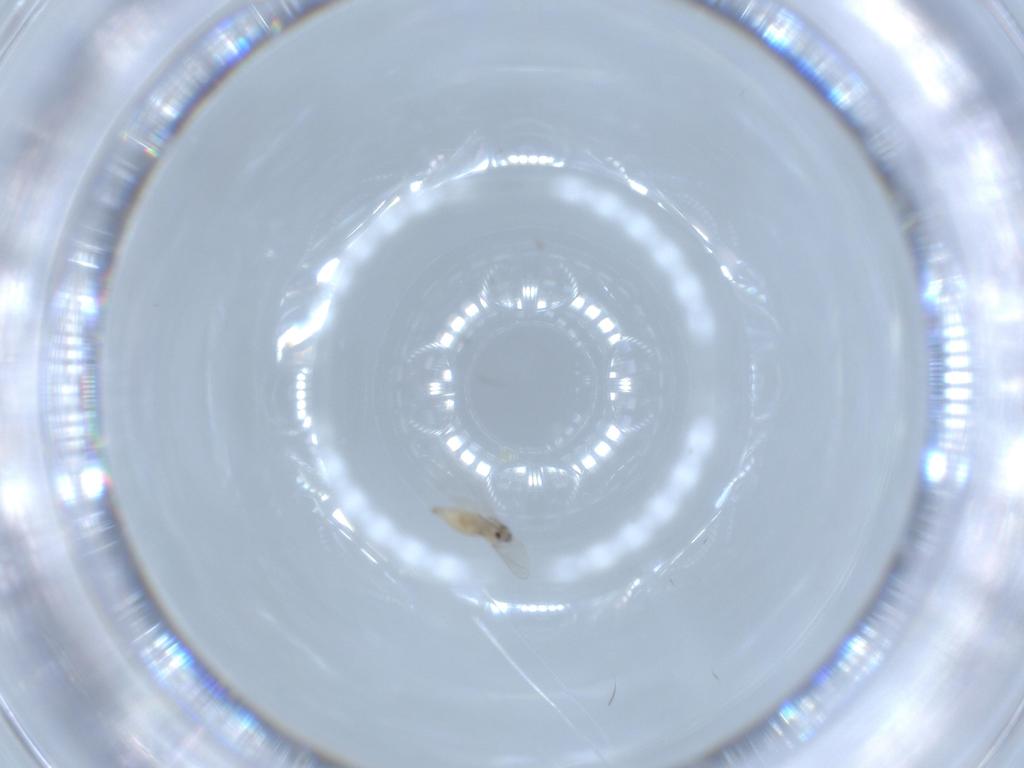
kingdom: Animalia
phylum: Arthropoda
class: Insecta
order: Diptera
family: Cecidomyiidae
